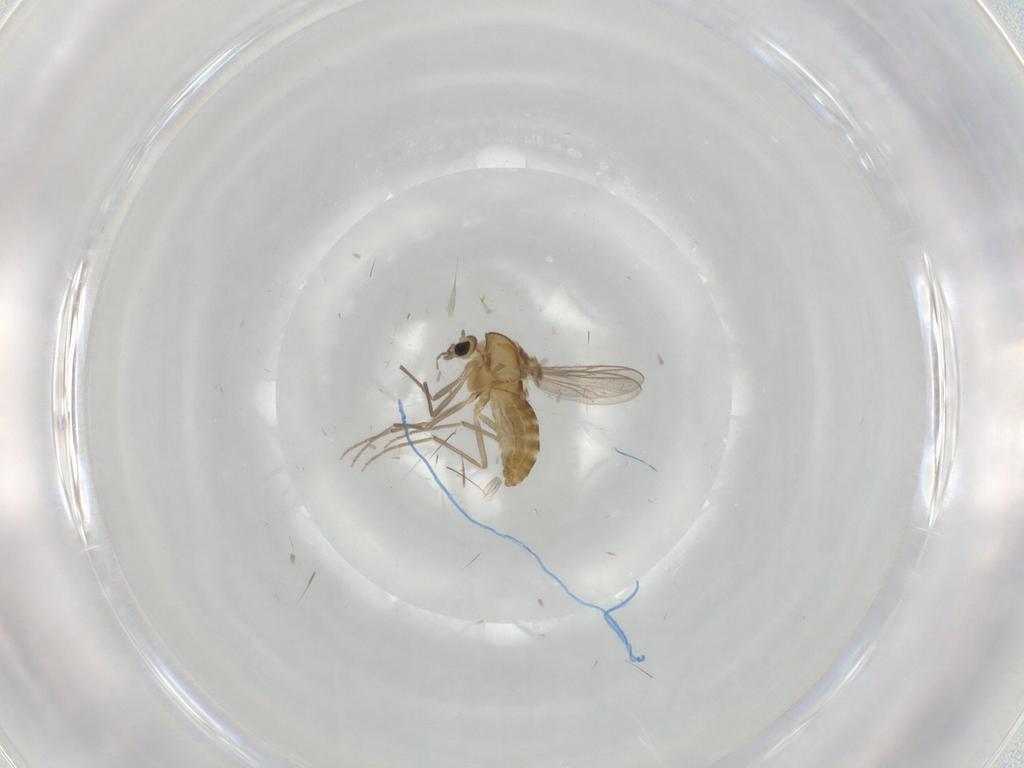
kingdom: Animalia
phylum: Arthropoda
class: Insecta
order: Diptera
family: Chironomidae
